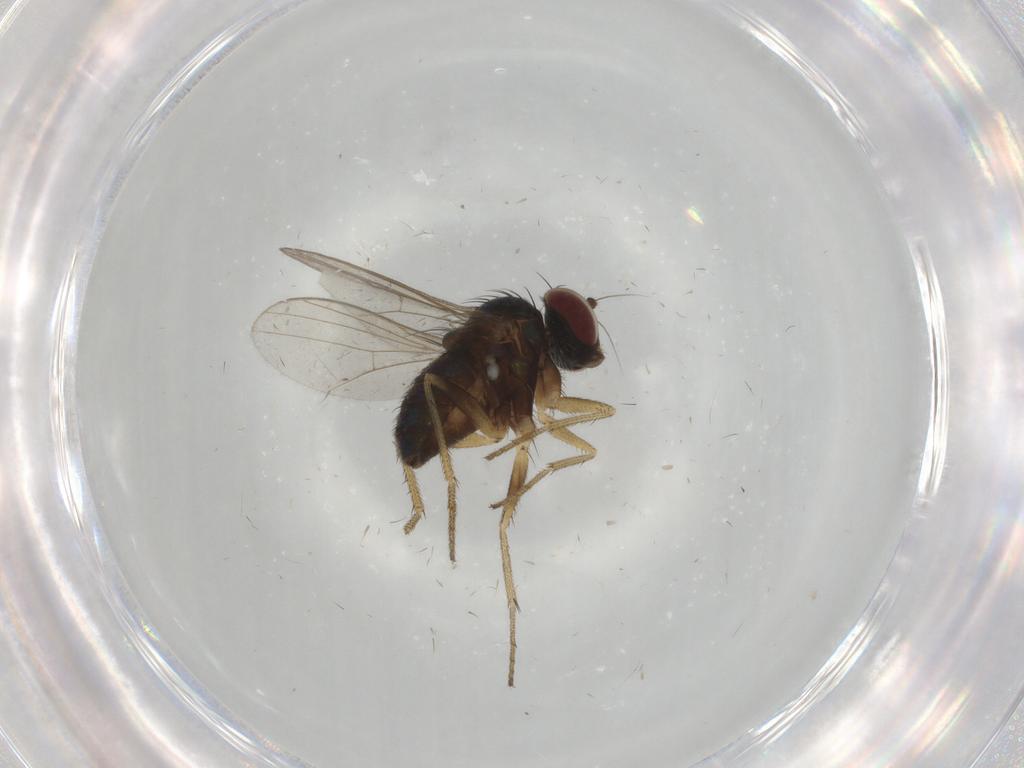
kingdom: Animalia
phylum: Arthropoda
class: Insecta
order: Diptera
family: Dolichopodidae
